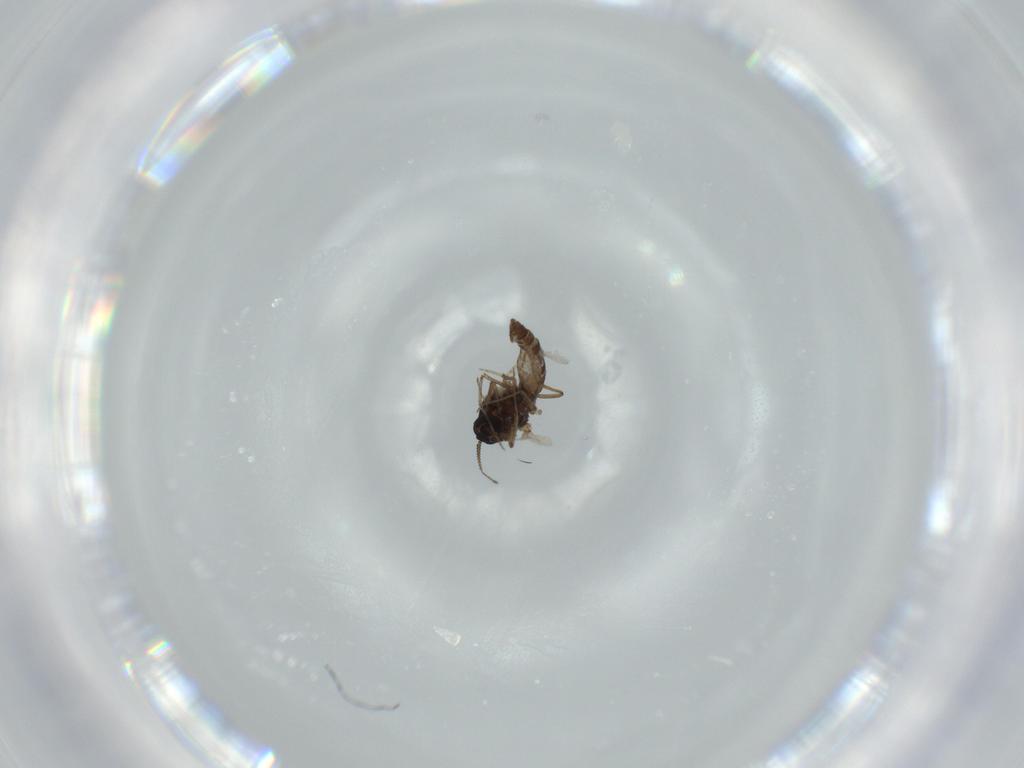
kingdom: Animalia
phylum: Arthropoda
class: Insecta
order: Diptera
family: Ceratopogonidae
